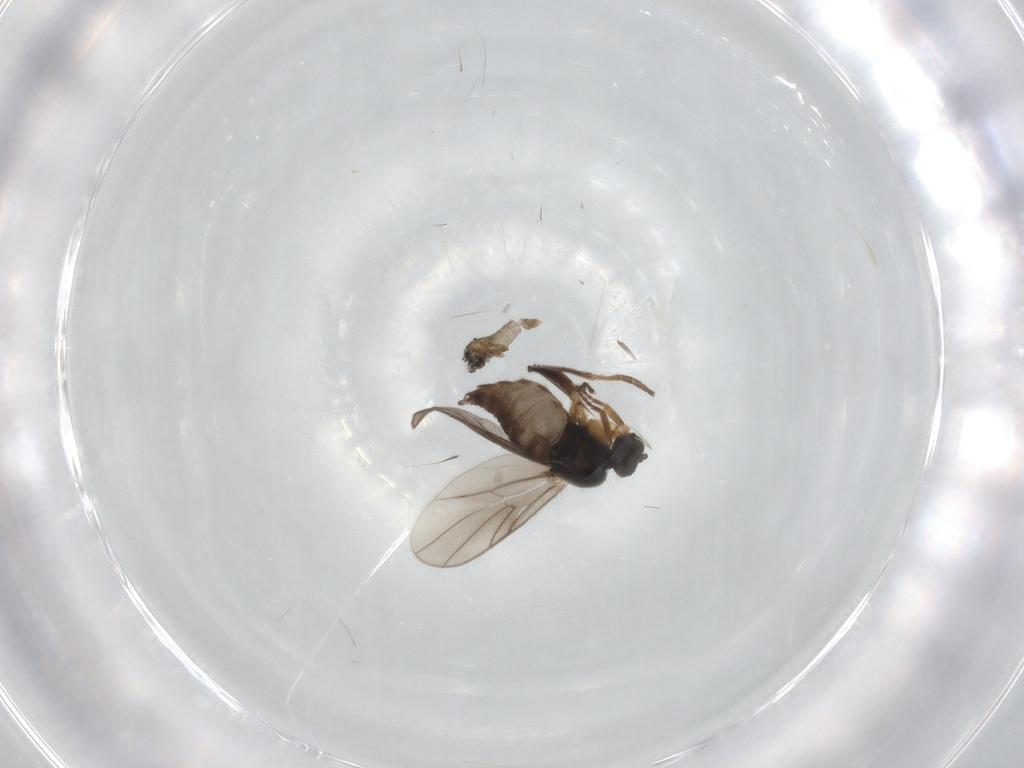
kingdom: Animalia
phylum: Arthropoda
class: Insecta
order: Diptera
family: Cecidomyiidae
